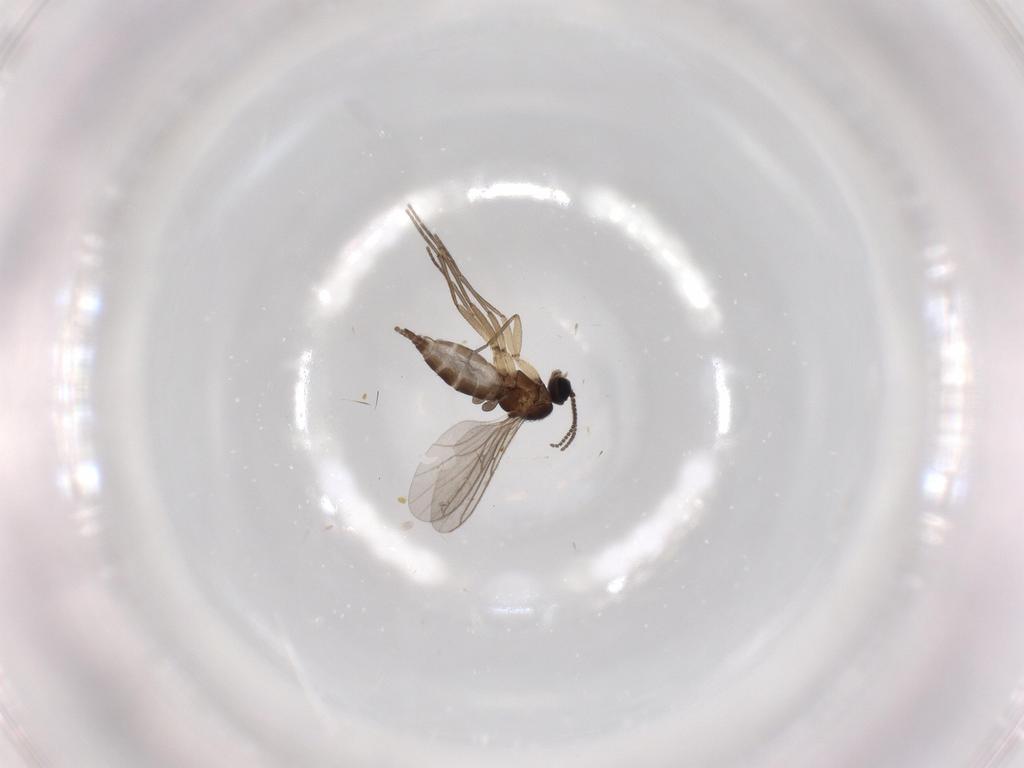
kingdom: Animalia
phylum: Arthropoda
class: Insecta
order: Diptera
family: Sciaridae
